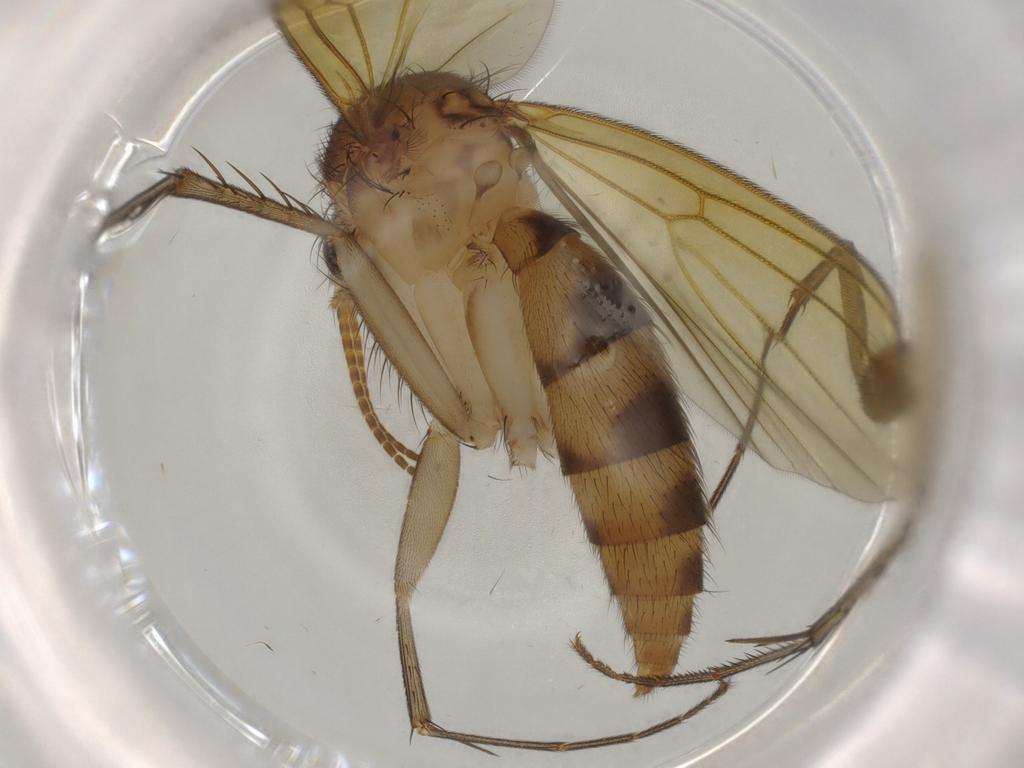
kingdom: Animalia
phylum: Arthropoda
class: Insecta
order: Diptera
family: Mycetophilidae
